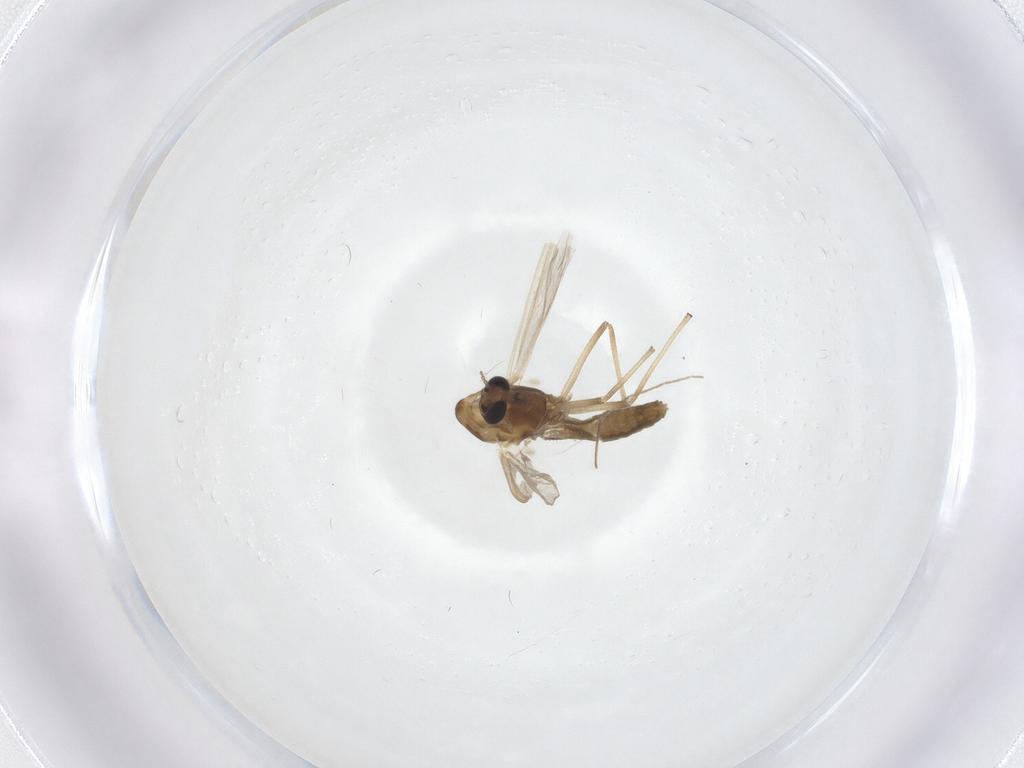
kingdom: Animalia
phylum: Arthropoda
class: Insecta
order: Diptera
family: Chironomidae
